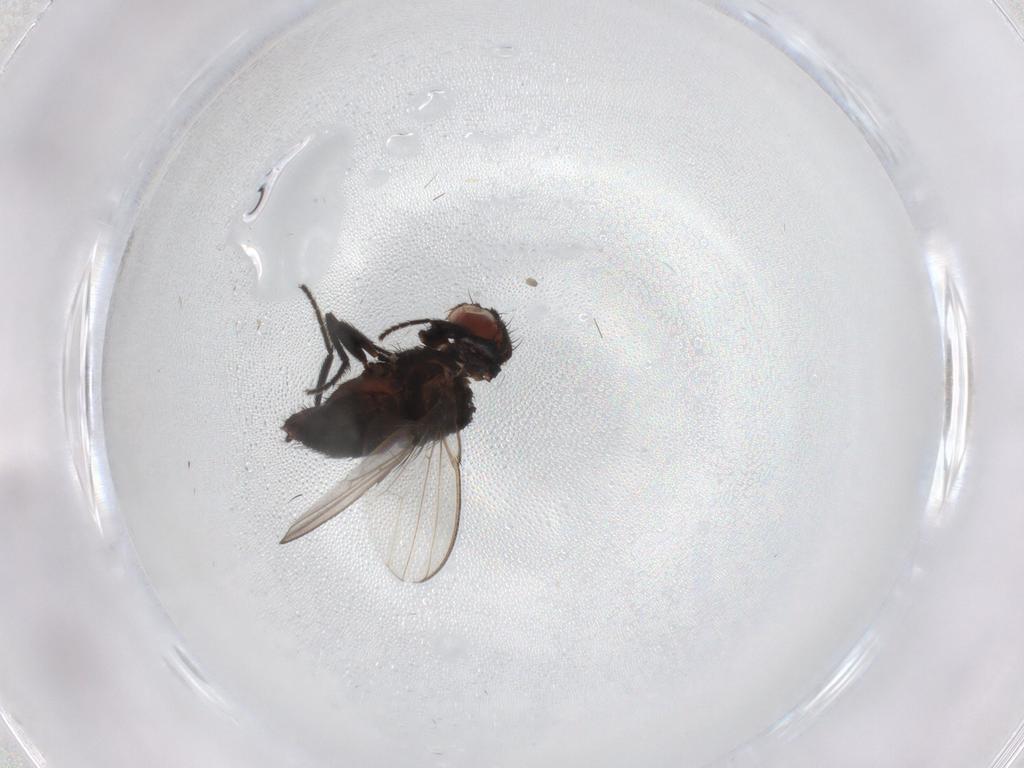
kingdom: Animalia
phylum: Arthropoda
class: Insecta
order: Diptera
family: Milichiidae
